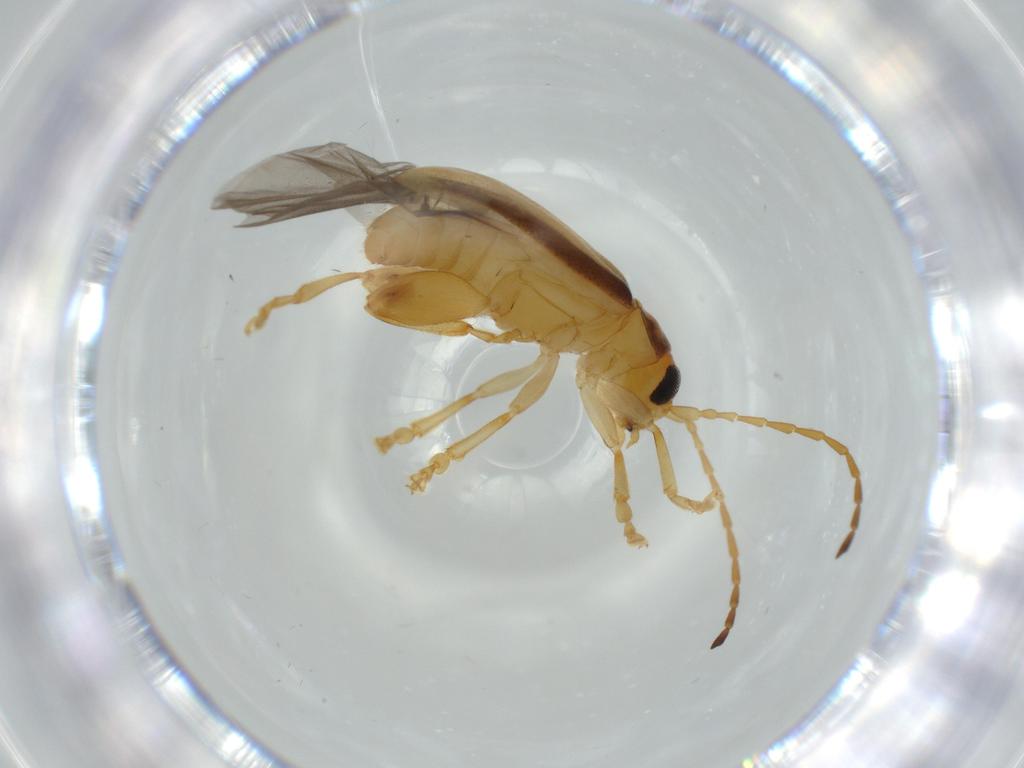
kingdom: Animalia
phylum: Arthropoda
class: Insecta
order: Coleoptera
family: Chrysomelidae
